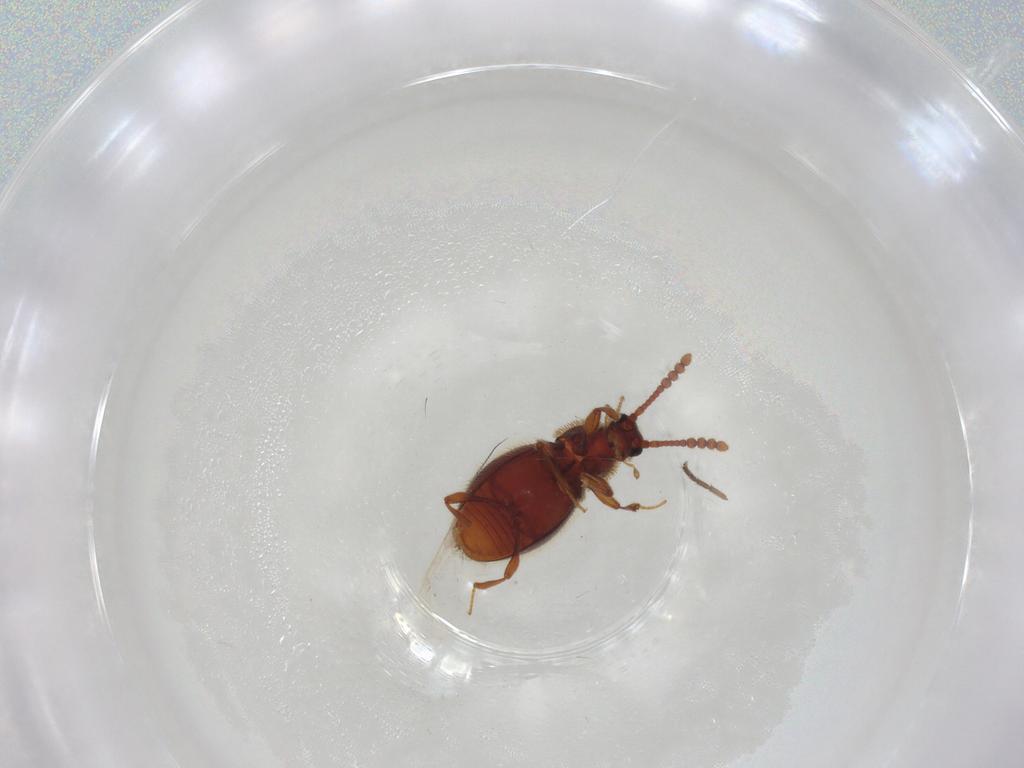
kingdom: Animalia
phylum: Arthropoda
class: Insecta
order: Coleoptera
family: Staphylinidae
